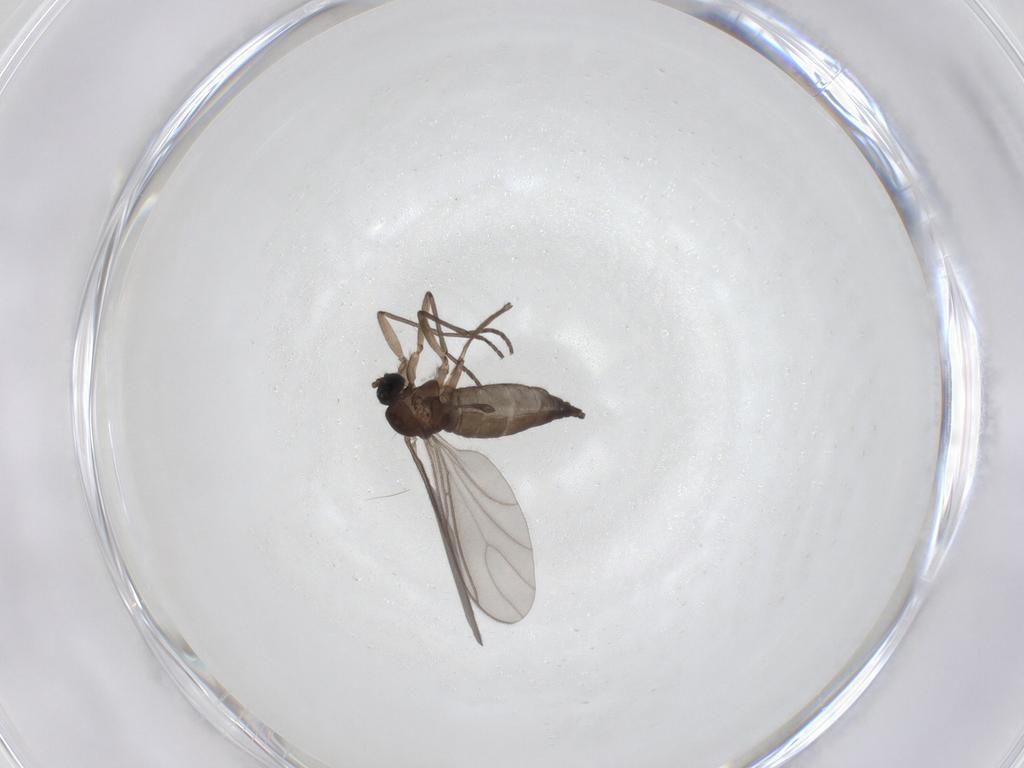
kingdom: Animalia
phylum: Arthropoda
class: Insecta
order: Diptera
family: Sciaridae
